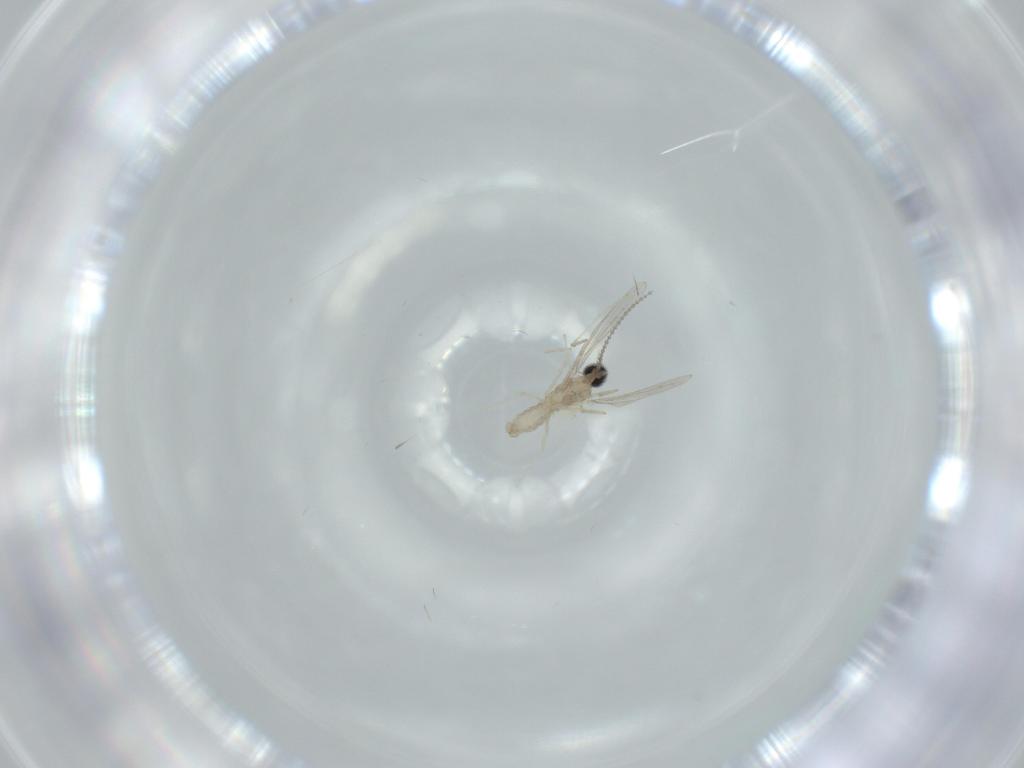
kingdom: Animalia
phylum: Arthropoda
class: Insecta
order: Diptera
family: Cecidomyiidae
